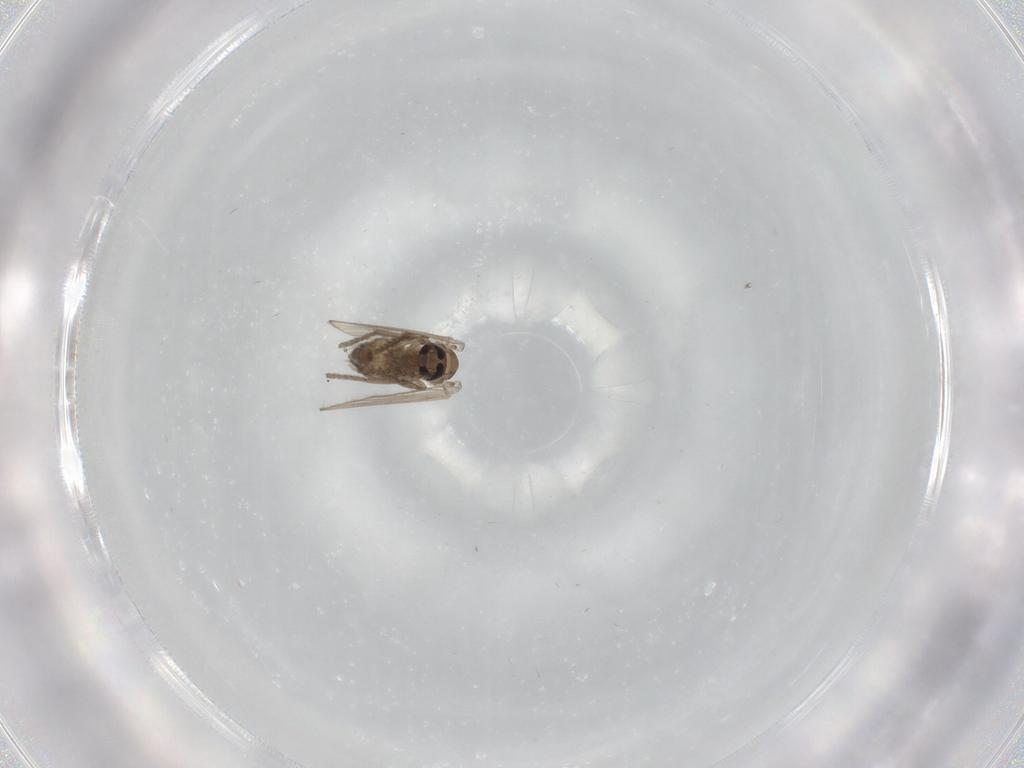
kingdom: Animalia
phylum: Arthropoda
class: Insecta
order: Diptera
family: Psychodidae
